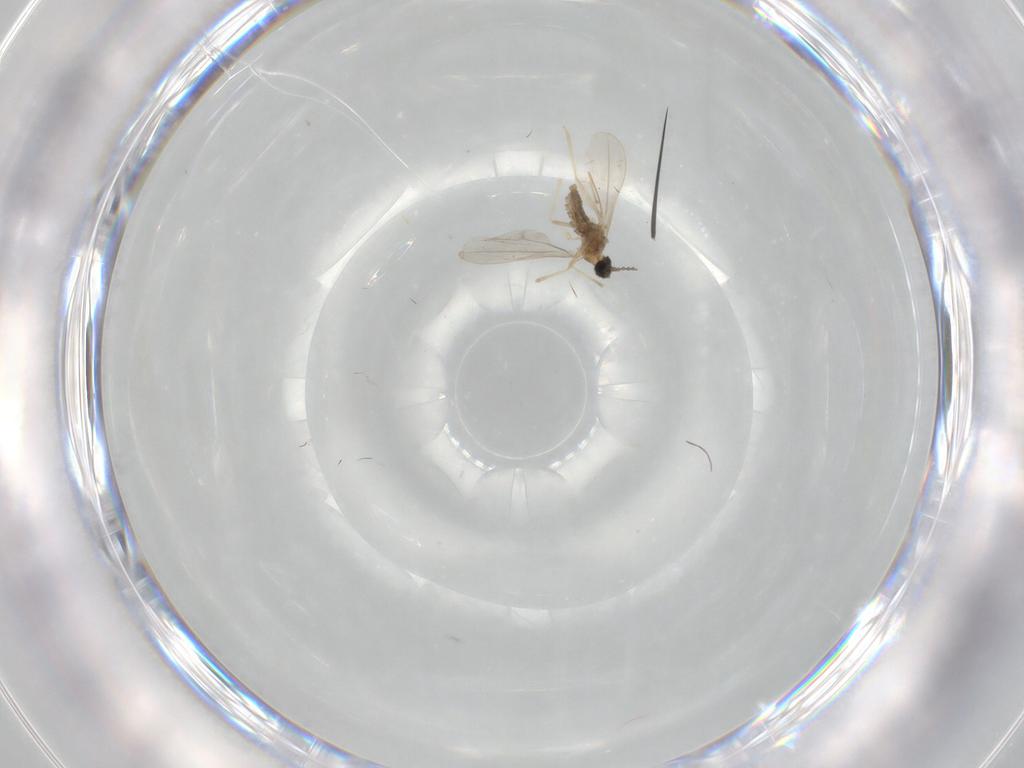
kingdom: Animalia
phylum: Arthropoda
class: Insecta
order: Diptera
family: Cecidomyiidae
